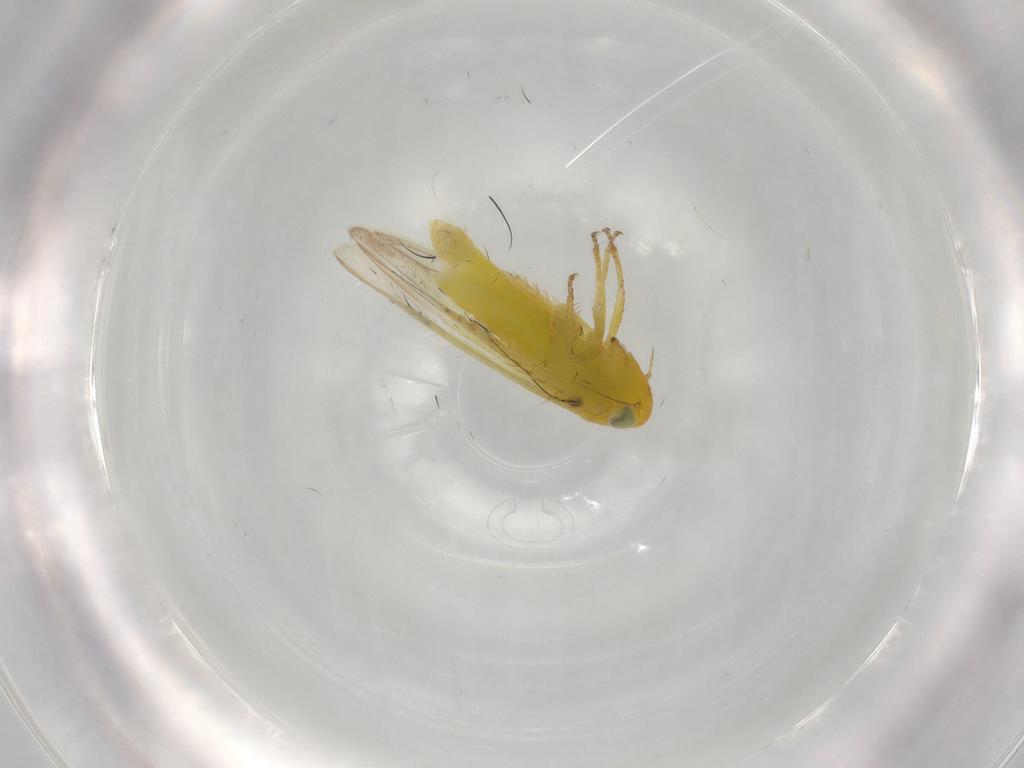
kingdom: Animalia
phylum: Arthropoda
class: Insecta
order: Hemiptera
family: Cicadellidae
